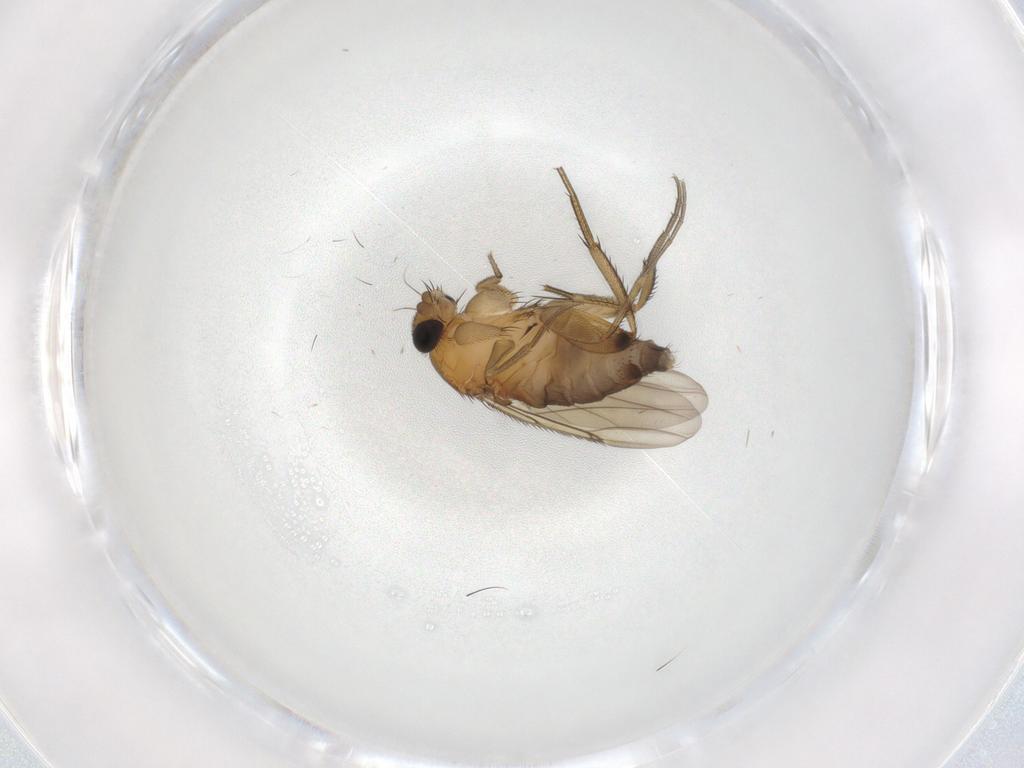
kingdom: Animalia
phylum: Arthropoda
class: Insecta
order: Diptera
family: Phoridae
